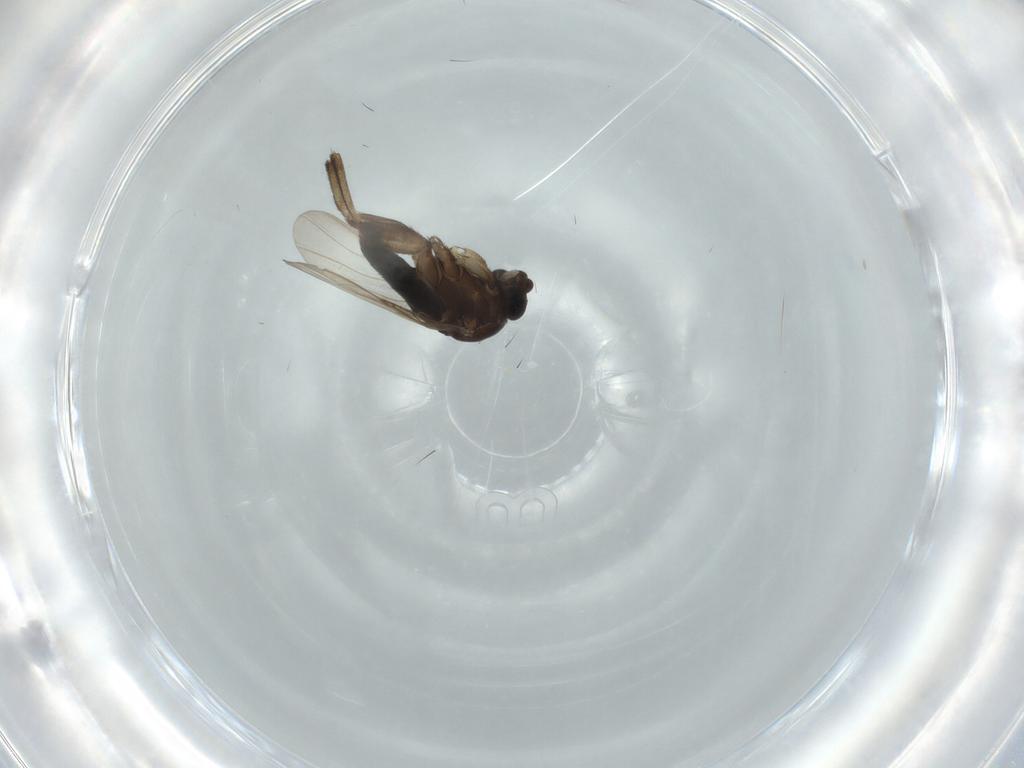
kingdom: Animalia
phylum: Arthropoda
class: Insecta
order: Diptera
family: Phoridae
